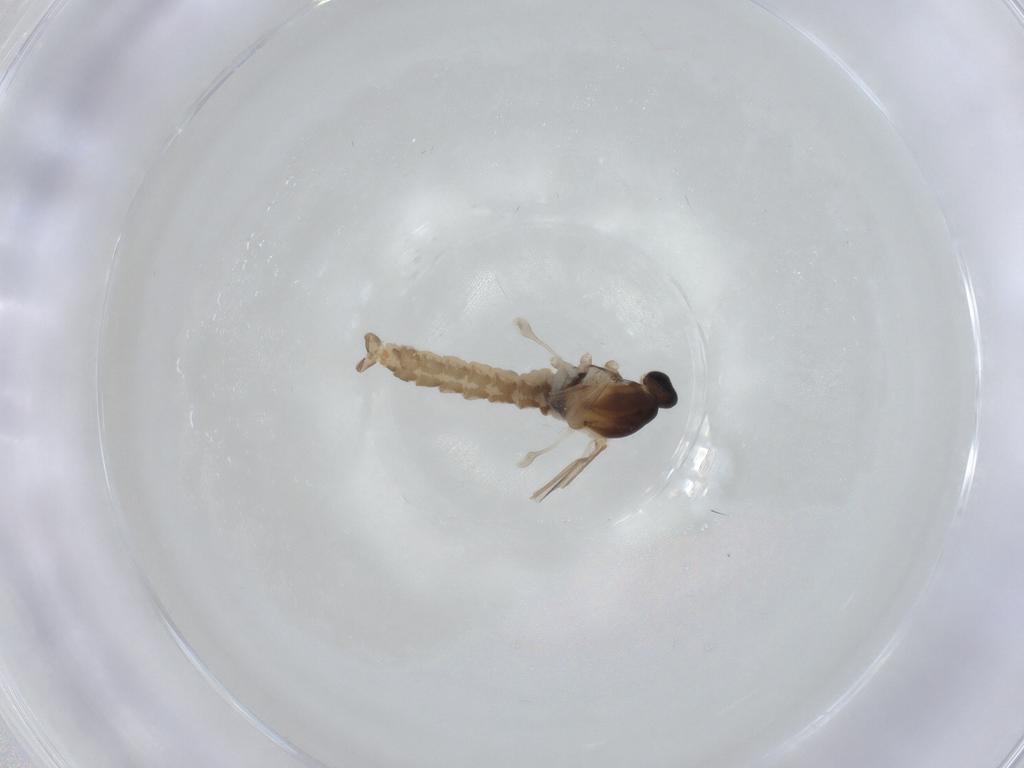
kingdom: Animalia
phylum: Arthropoda
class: Insecta
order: Diptera
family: Cecidomyiidae
